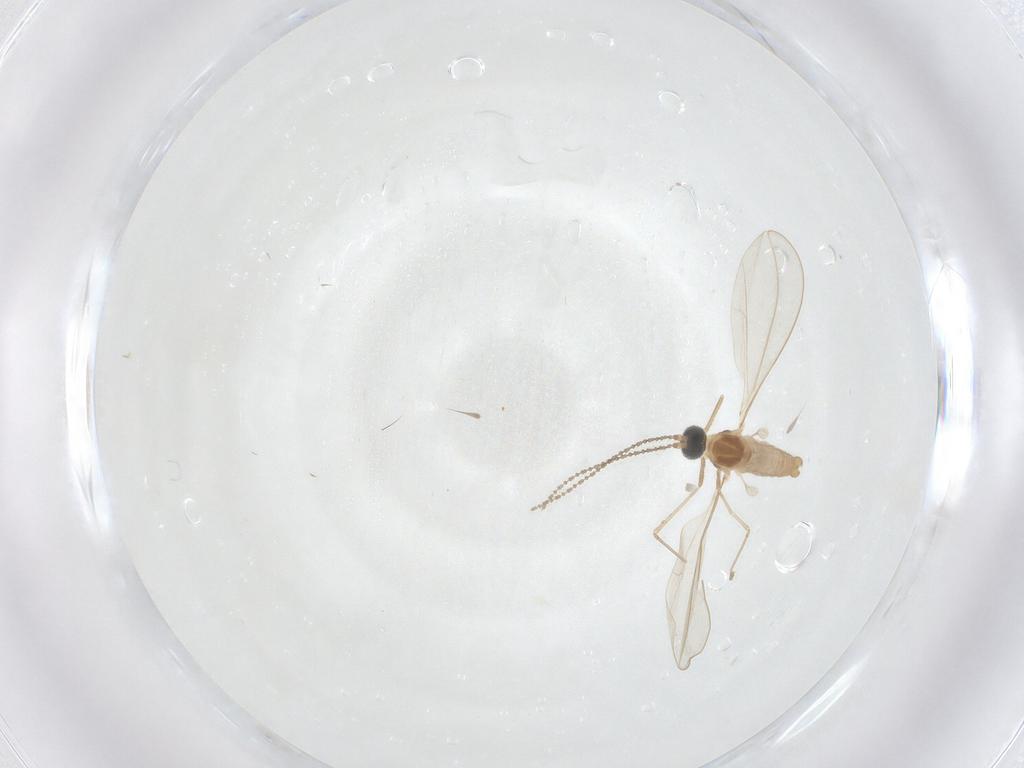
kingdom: Animalia
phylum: Arthropoda
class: Insecta
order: Diptera
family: Cecidomyiidae
